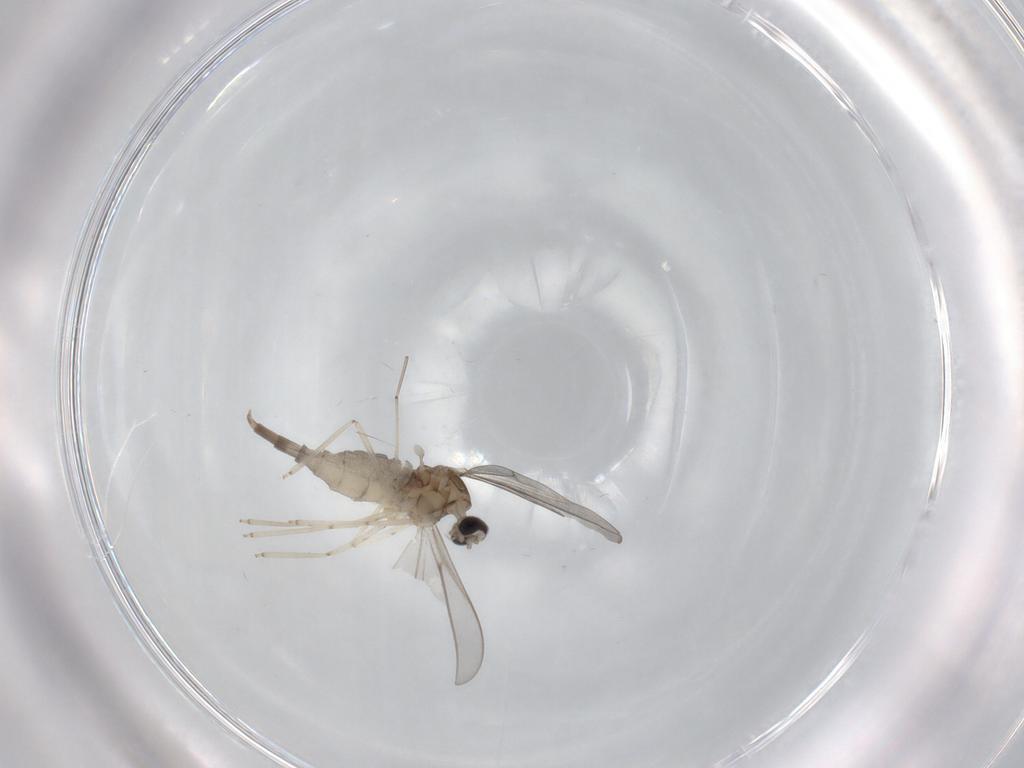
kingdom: Animalia
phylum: Arthropoda
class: Insecta
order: Diptera
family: Cecidomyiidae
